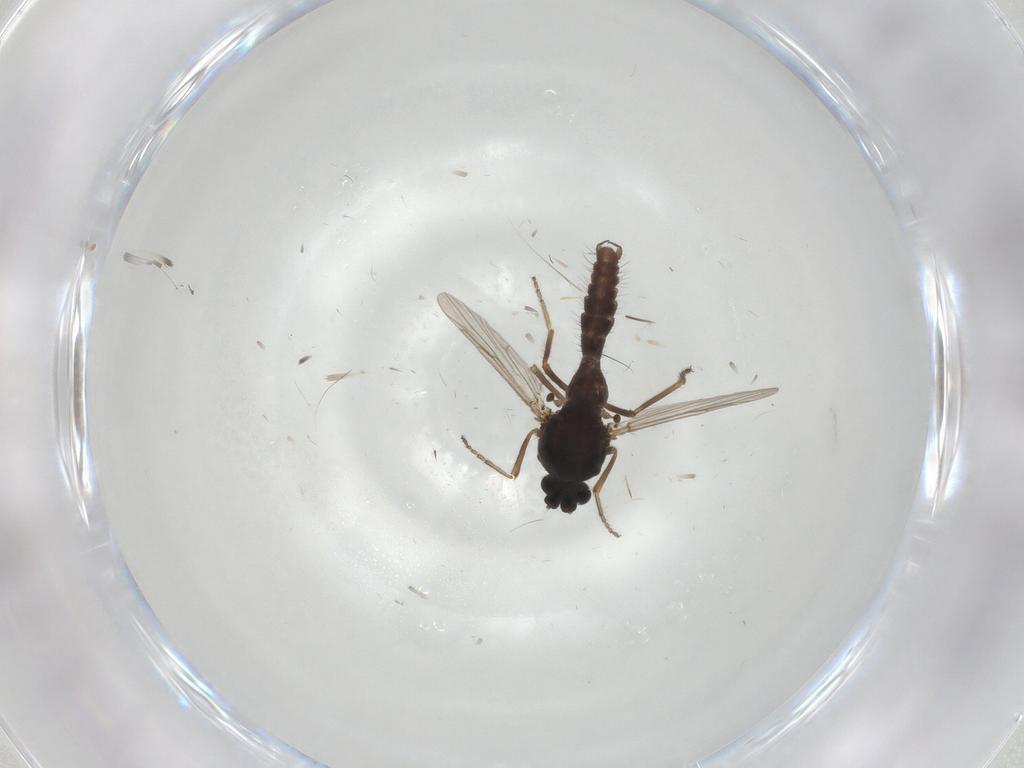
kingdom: Animalia
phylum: Arthropoda
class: Insecta
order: Diptera
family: Ceratopogonidae
